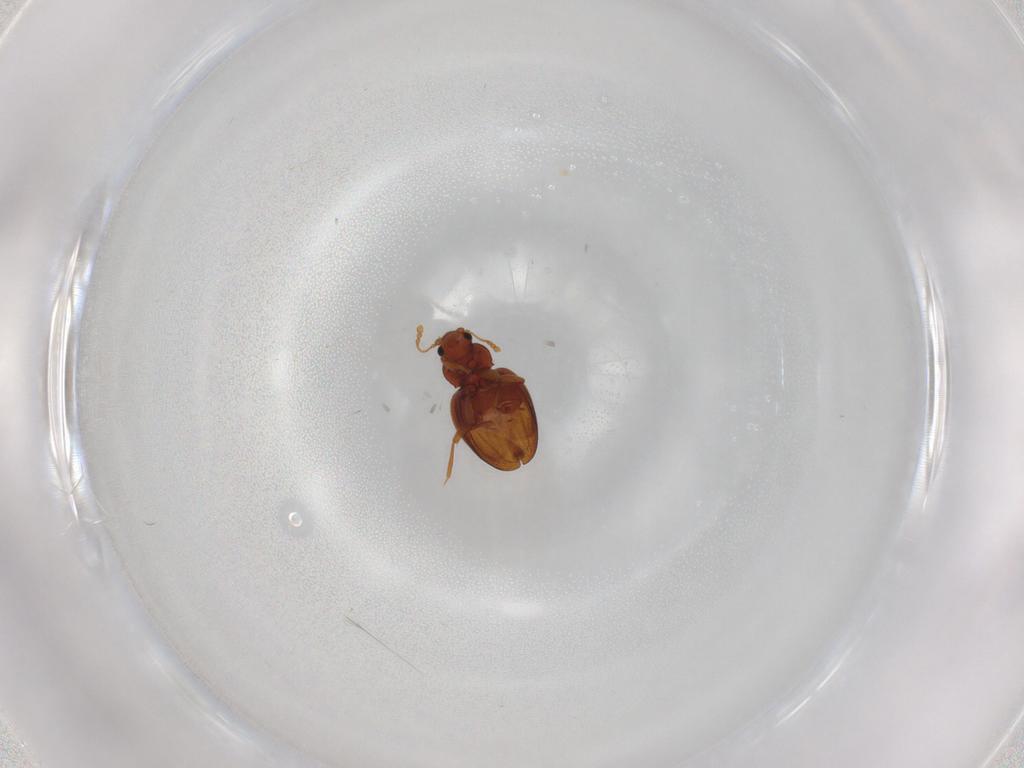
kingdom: Animalia
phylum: Arthropoda
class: Insecta
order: Coleoptera
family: Latridiidae
